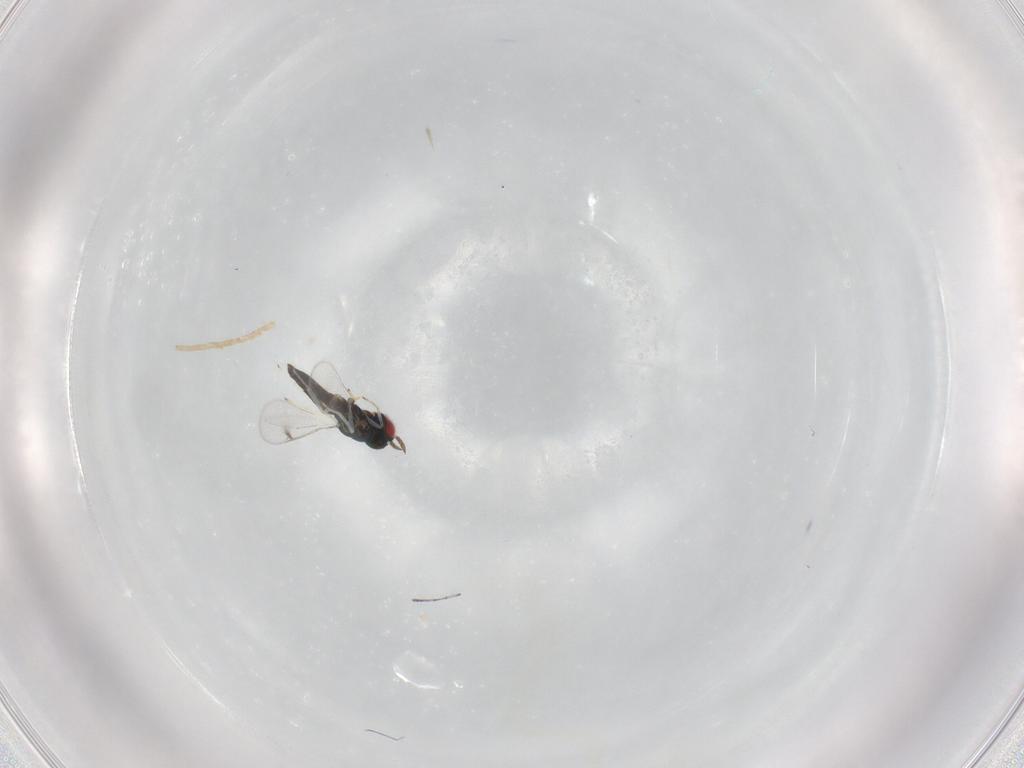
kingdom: Animalia
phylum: Arthropoda
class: Insecta
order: Hymenoptera
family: Eulophidae
